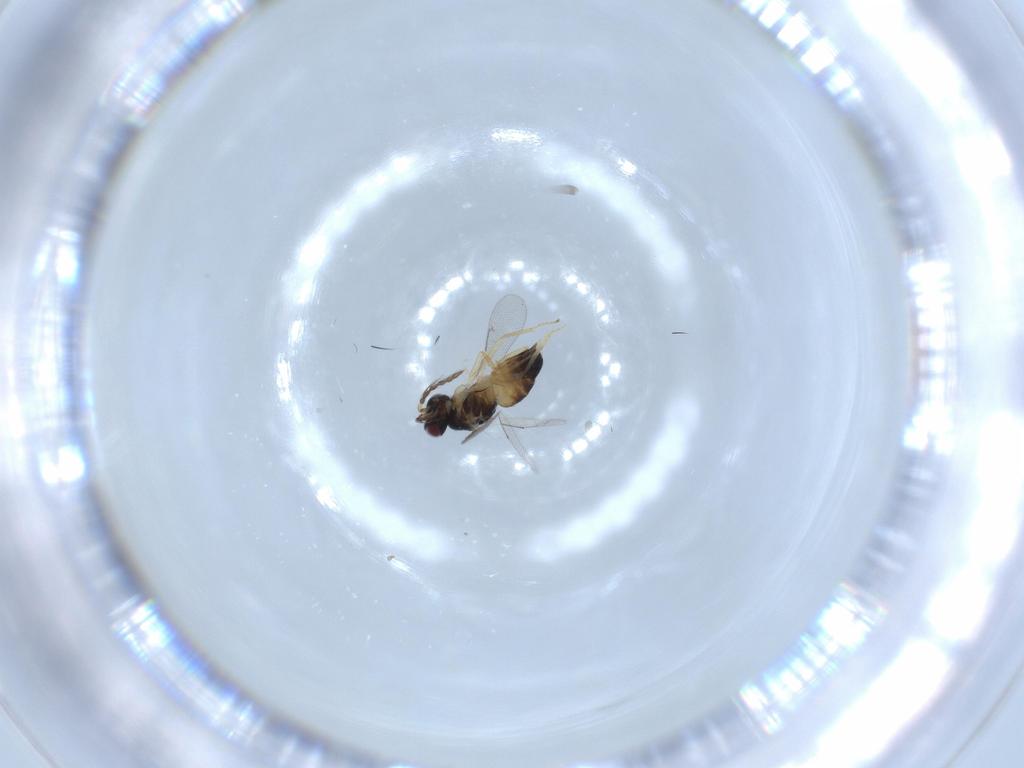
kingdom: Animalia
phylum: Arthropoda
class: Insecta
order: Hymenoptera
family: Eulophidae
